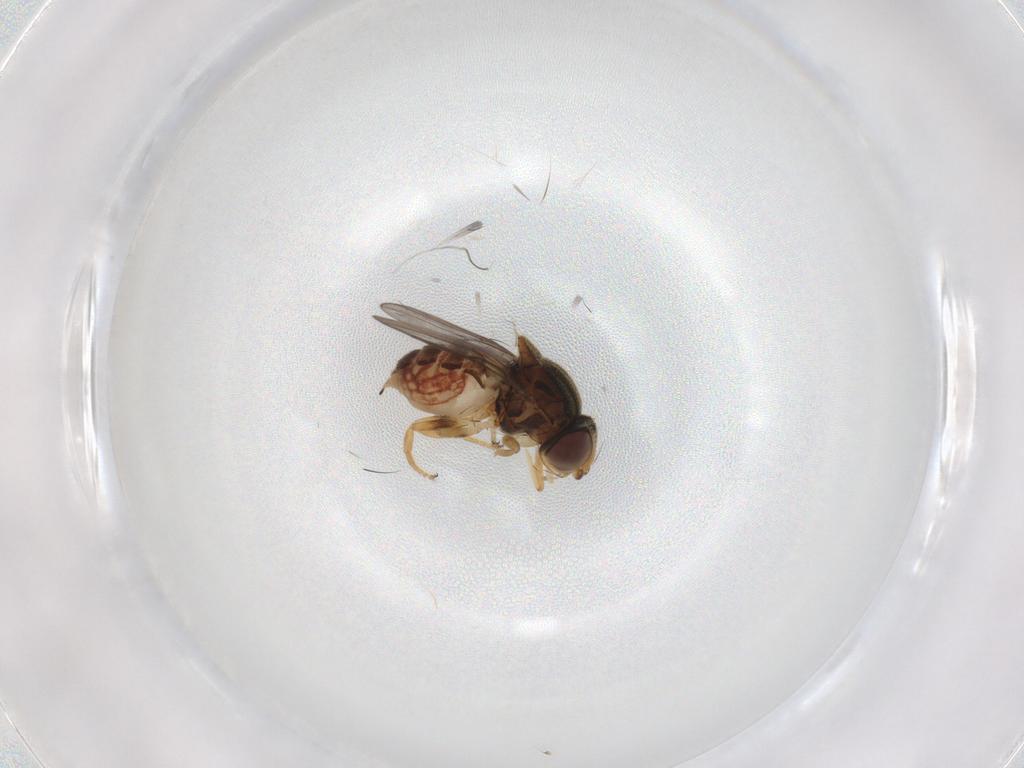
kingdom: Animalia
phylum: Arthropoda
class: Insecta
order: Diptera
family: Chloropidae
